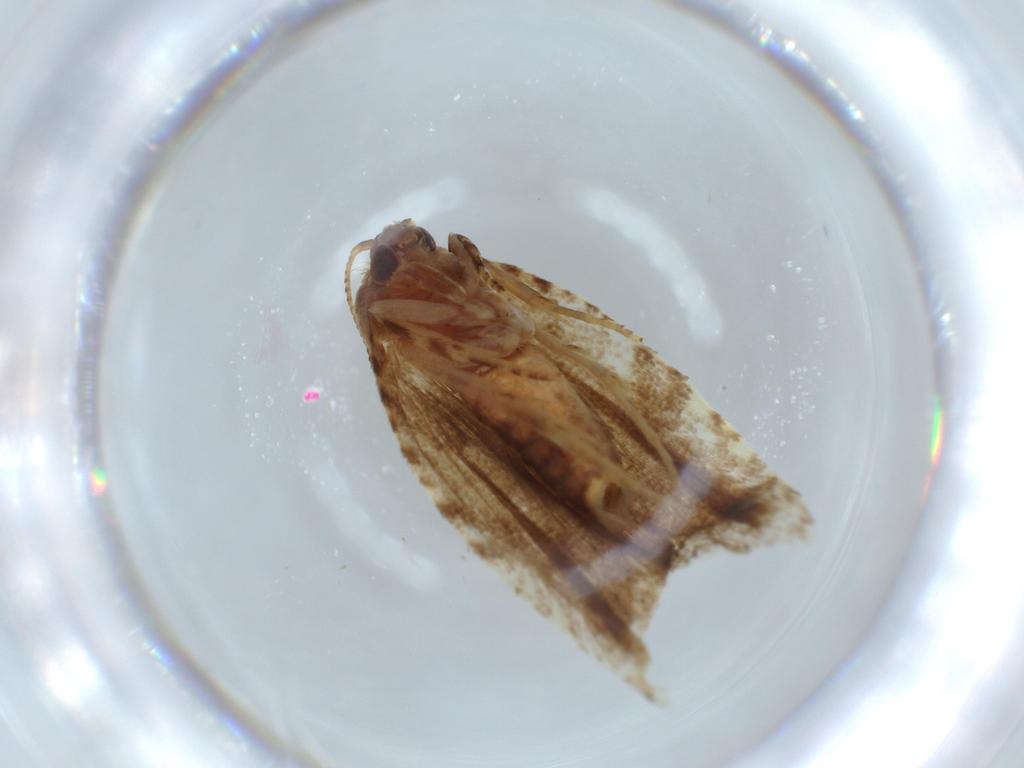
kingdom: Animalia
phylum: Arthropoda
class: Insecta
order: Lepidoptera
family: Tortricidae
